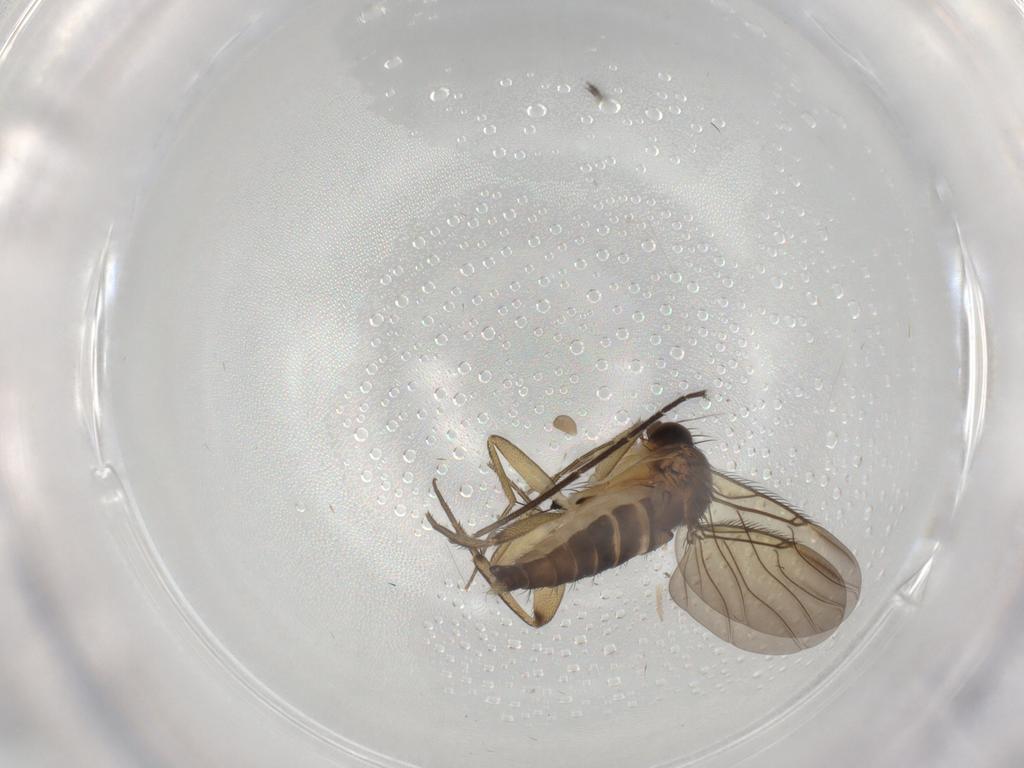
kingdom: Animalia
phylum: Arthropoda
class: Insecta
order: Diptera
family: Phoridae
